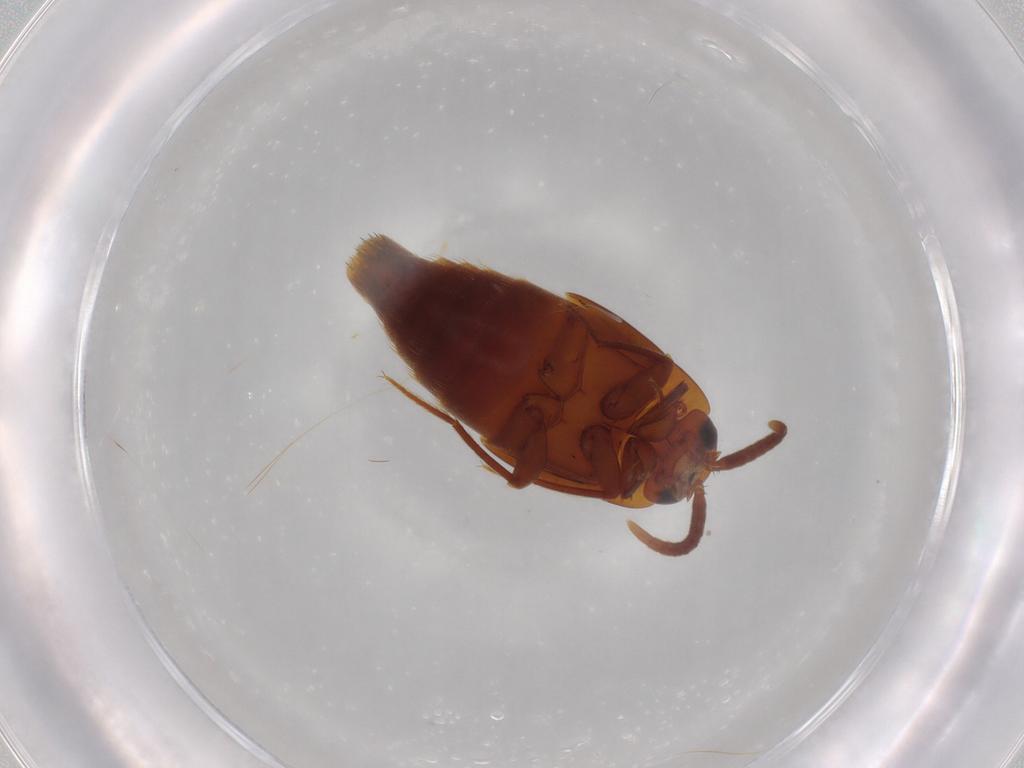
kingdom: Animalia
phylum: Arthropoda
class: Insecta
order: Coleoptera
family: Staphylinidae
